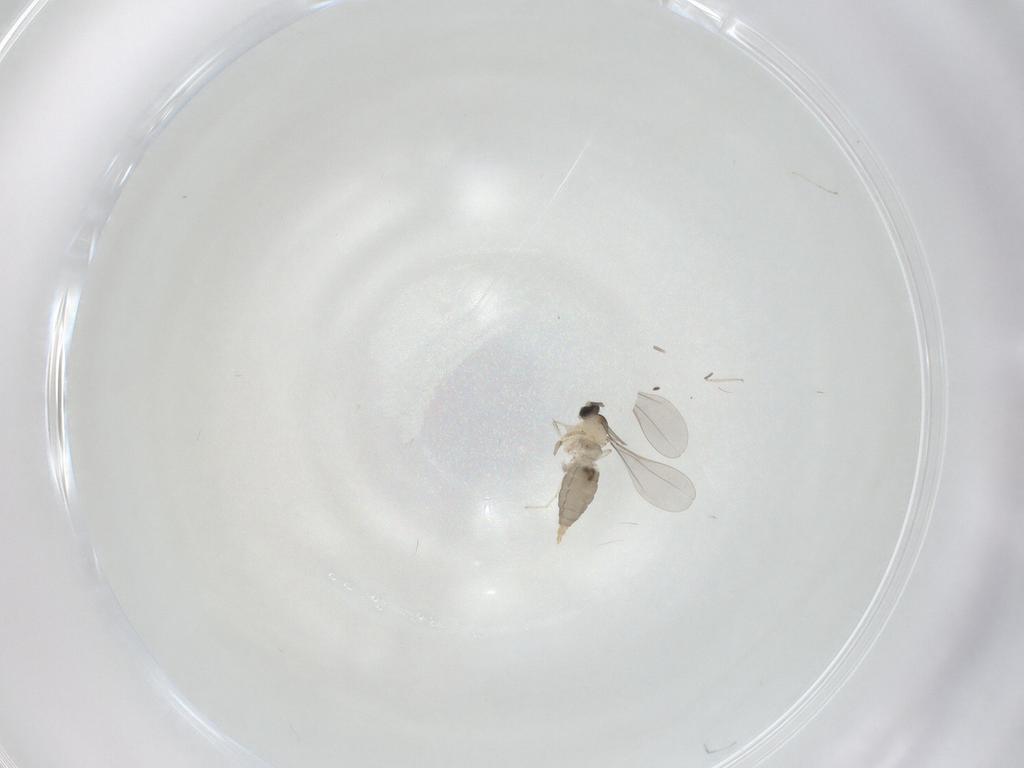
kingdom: Animalia
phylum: Arthropoda
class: Insecta
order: Diptera
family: Cecidomyiidae
